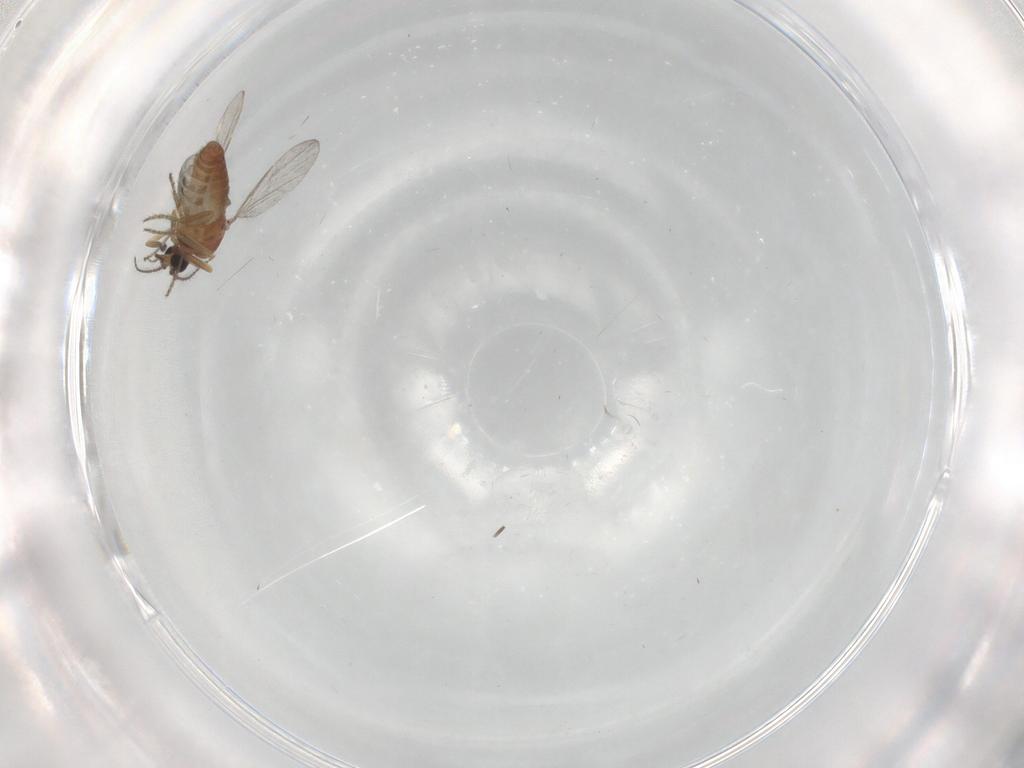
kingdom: Animalia
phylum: Arthropoda
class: Insecta
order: Diptera
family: Ceratopogonidae
